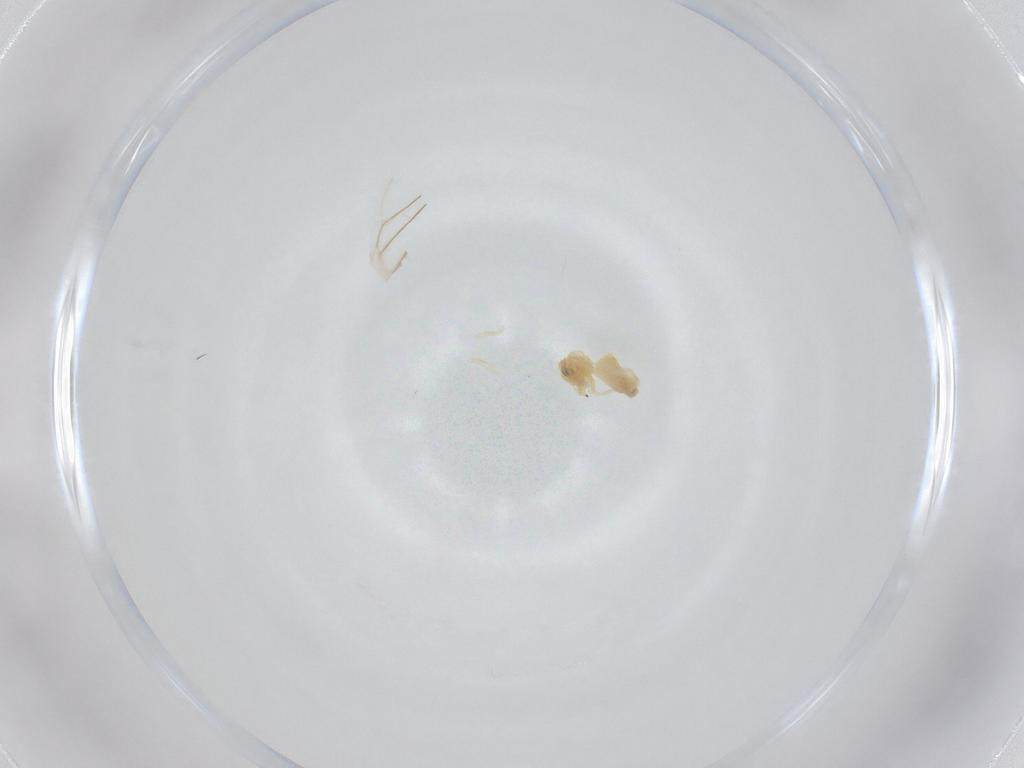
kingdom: Animalia
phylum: Arthropoda
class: Insecta
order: Hemiptera
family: Aleyrodidae
